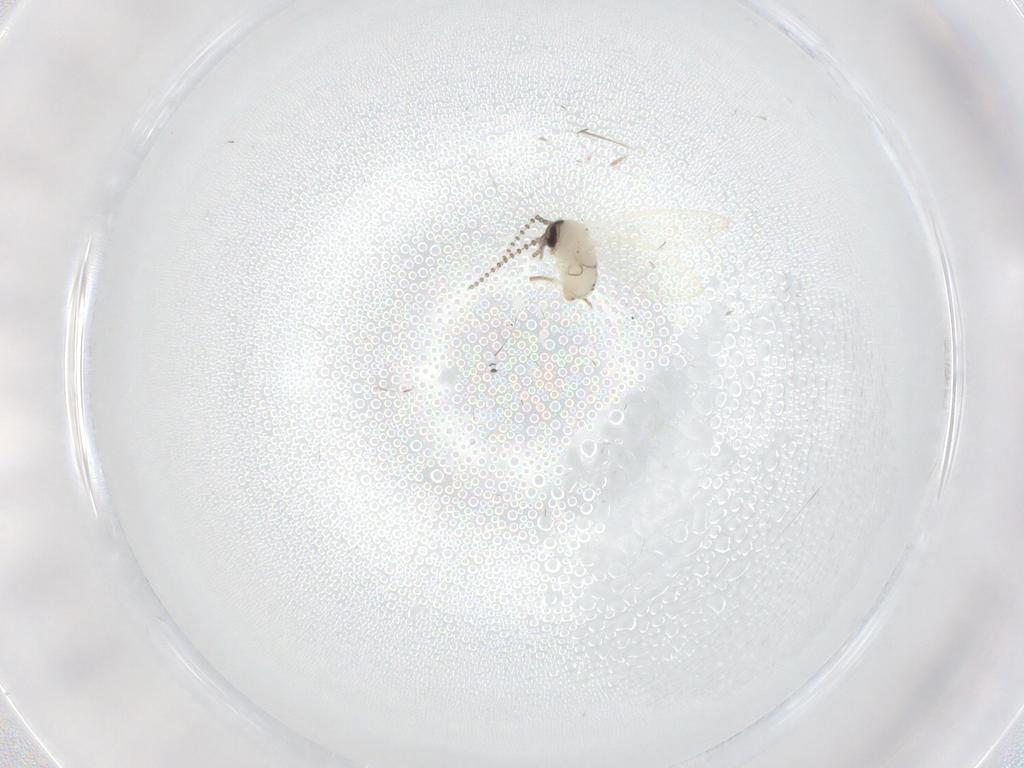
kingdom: Animalia
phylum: Arthropoda
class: Insecta
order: Diptera
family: Psychodidae
